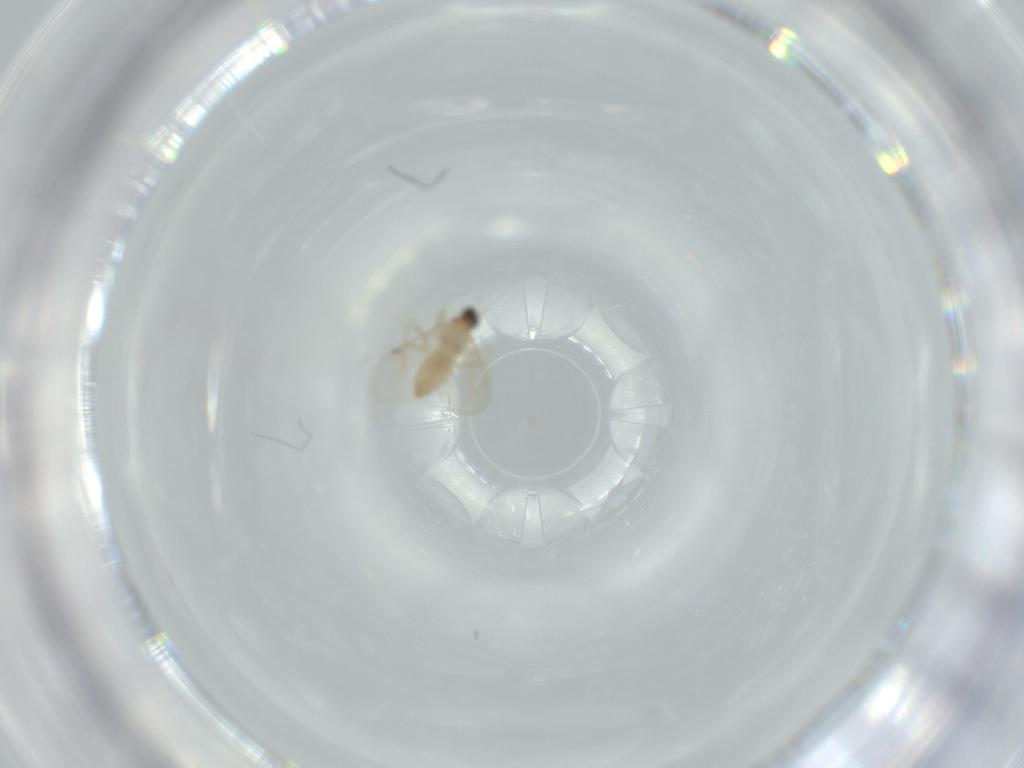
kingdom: Animalia
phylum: Arthropoda
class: Insecta
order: Diptera
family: Cecidomyiidae
